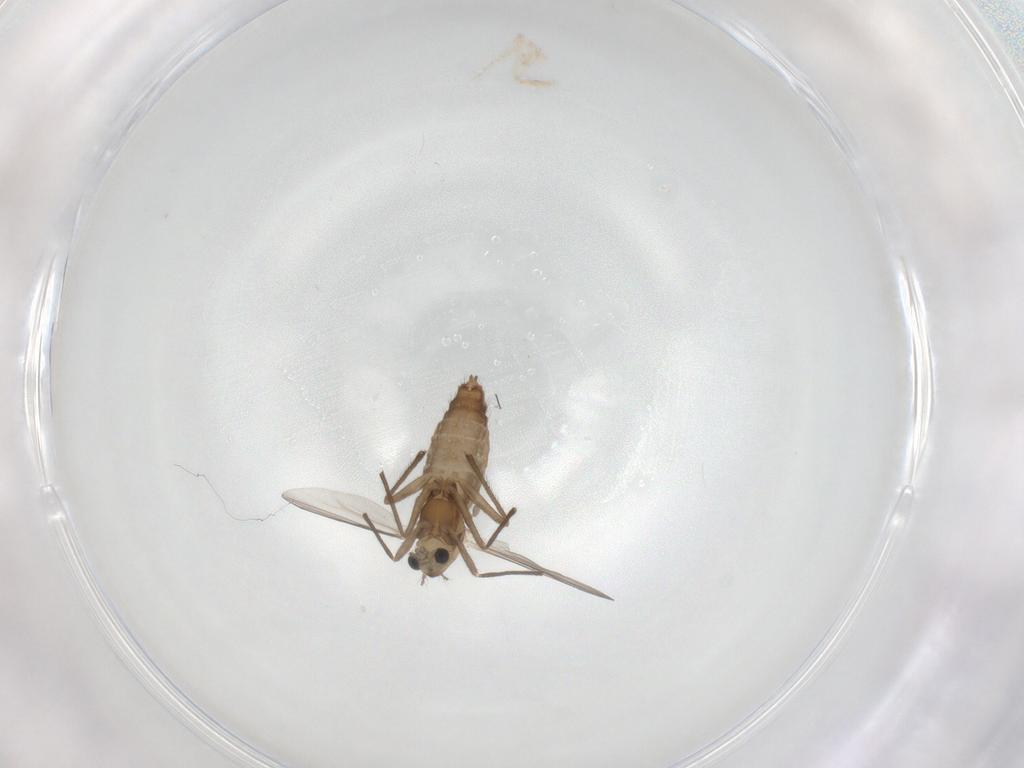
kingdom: Animalia
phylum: Arthropoda
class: Insecta
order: Diptera
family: Chironomidae
